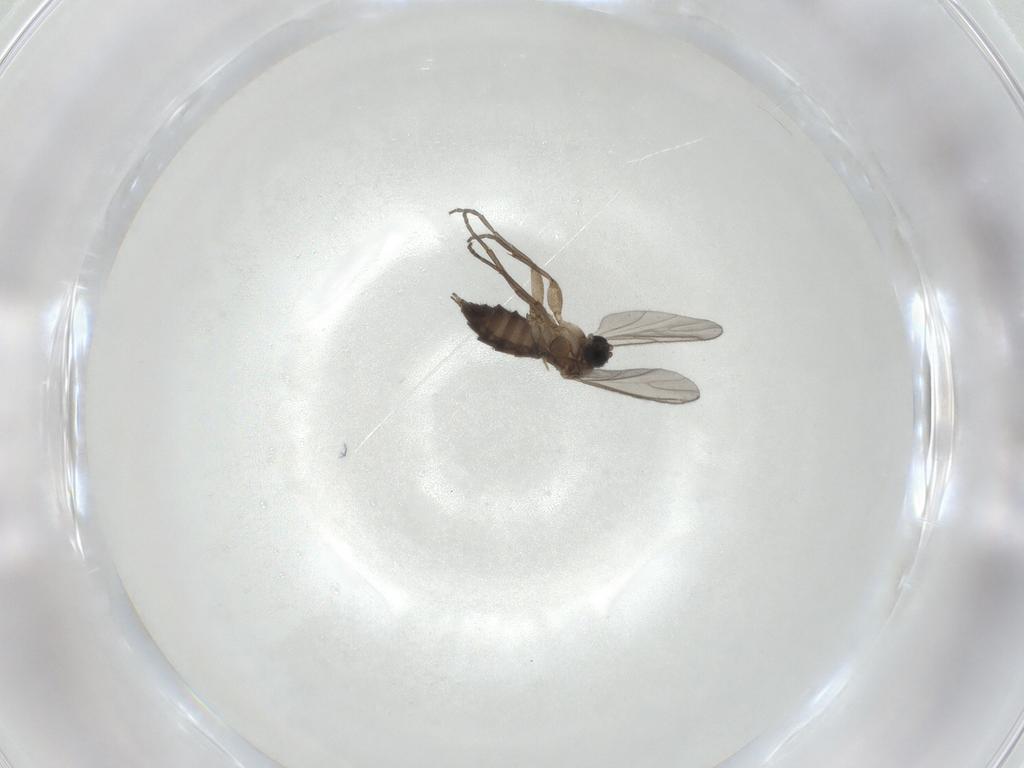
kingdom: Animalia
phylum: Arthropoda
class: Insecta
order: Diptera
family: Sciaridae
